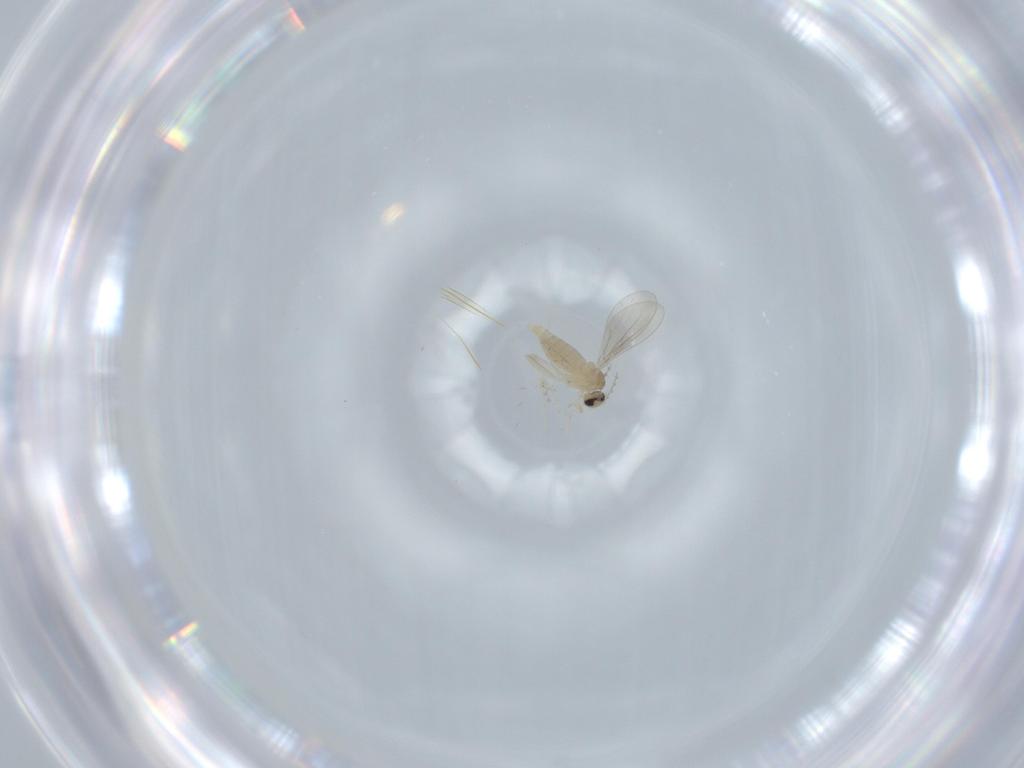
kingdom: Animalia
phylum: Arthropoda
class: Insecta
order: Diptera
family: Cecidomyiidae
